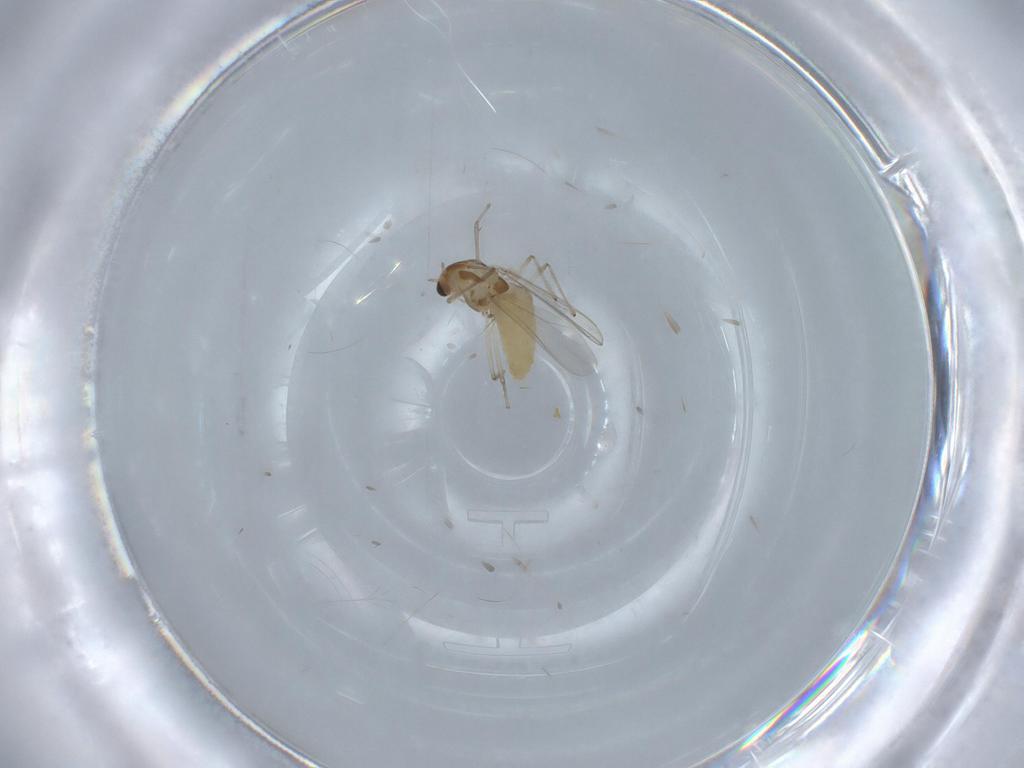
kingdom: Animalia
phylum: Arthropoda
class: Insecta
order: Diptera
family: Chironomidae
